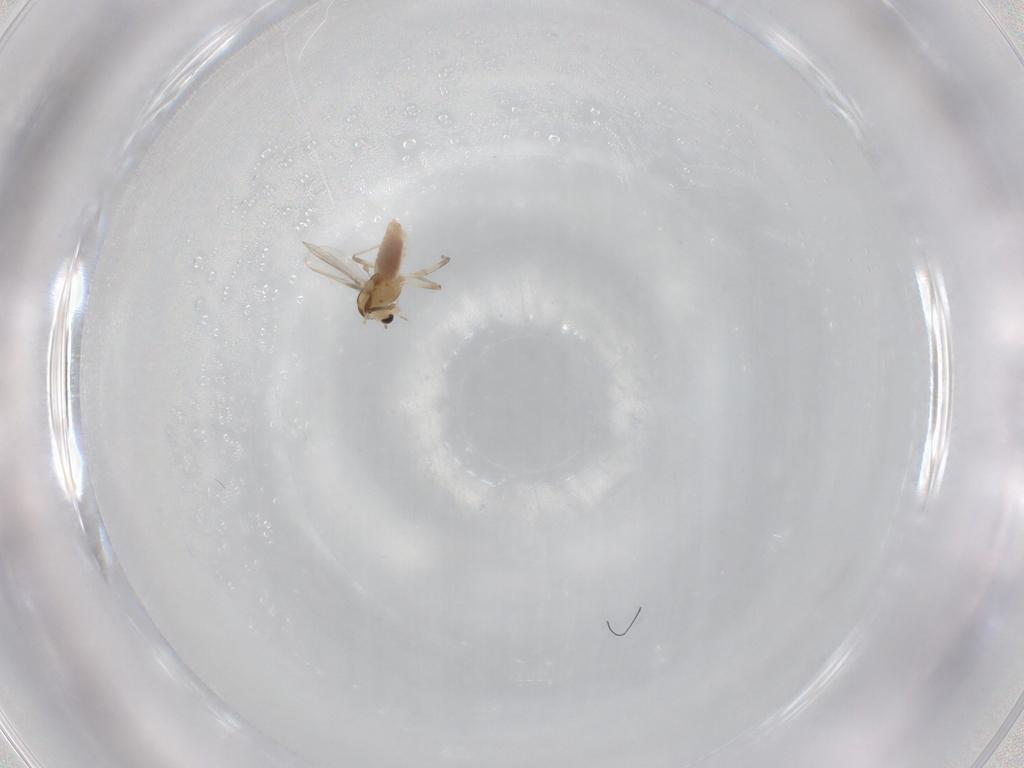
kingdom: Animalia
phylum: Arthropoda
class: Insecta
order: Diptera
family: Chironomidae
